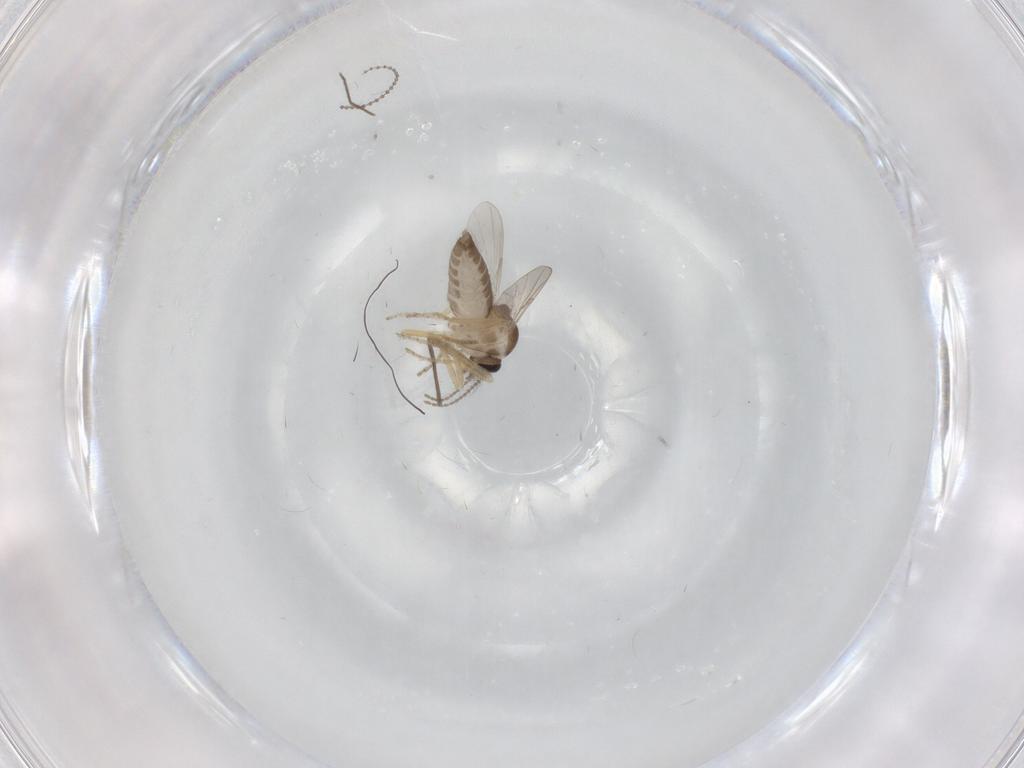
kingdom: Animalia
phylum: Arthropoda
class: Insecta
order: Diptera
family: Ceratopogonidae
